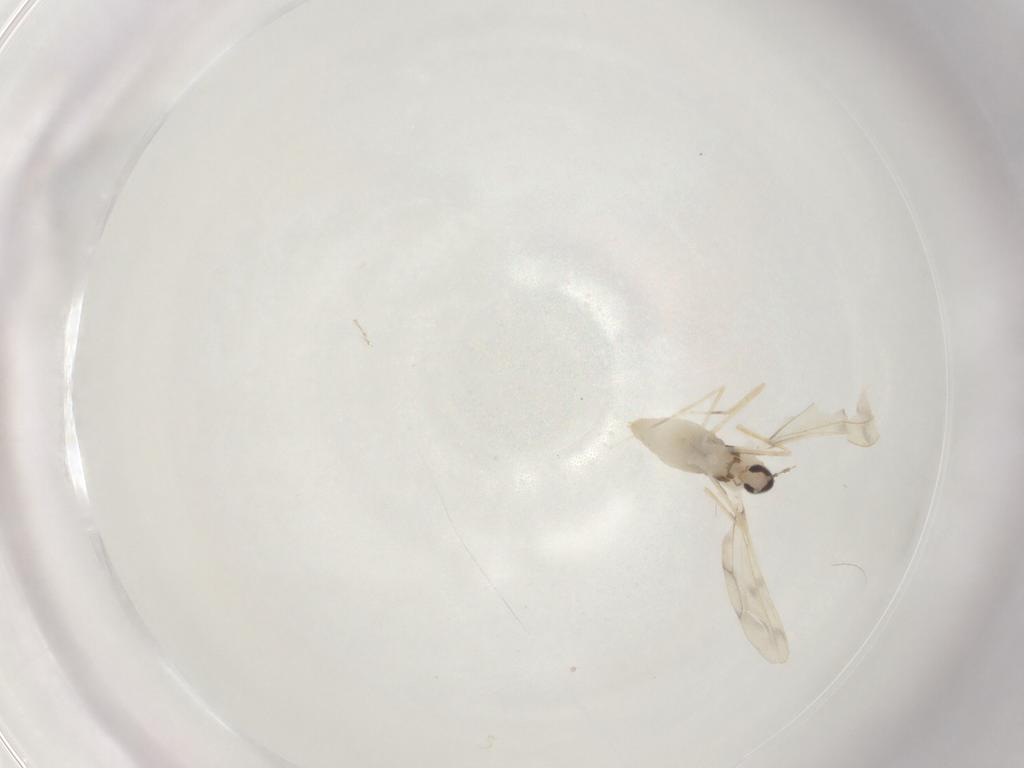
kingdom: Animalia
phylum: Arthropoda
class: Insecta
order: Diptera
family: Cecidomyiidae
